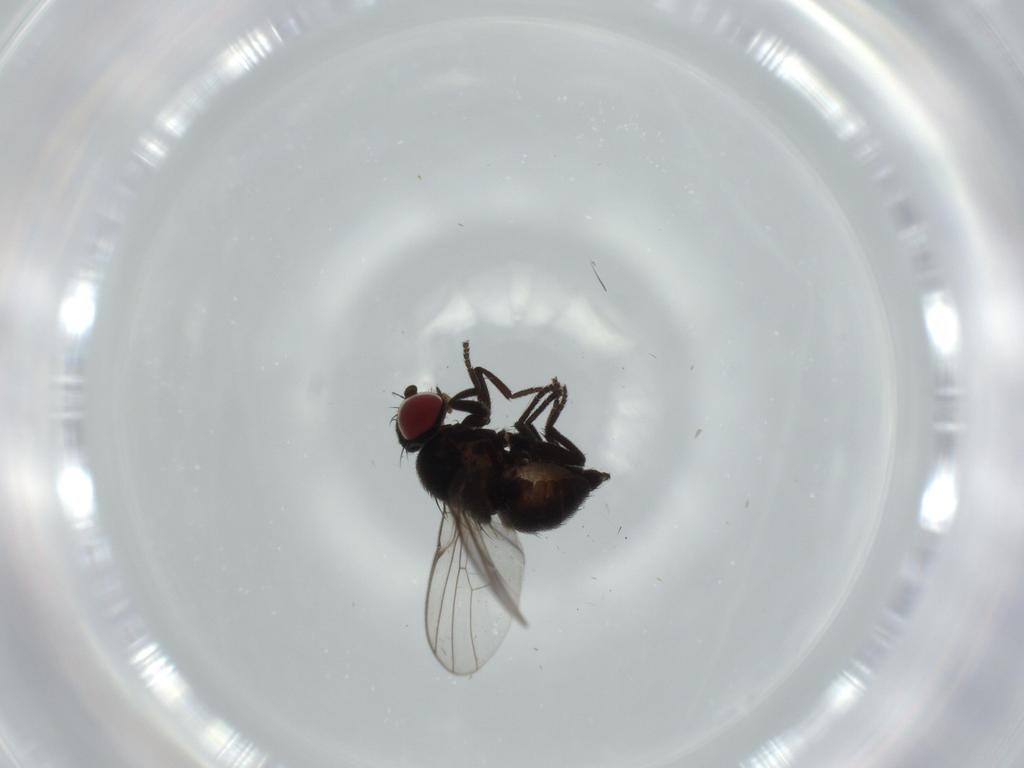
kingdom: Animalia
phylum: Arthropoda
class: Insecta
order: Diptera
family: Agromyzidae
